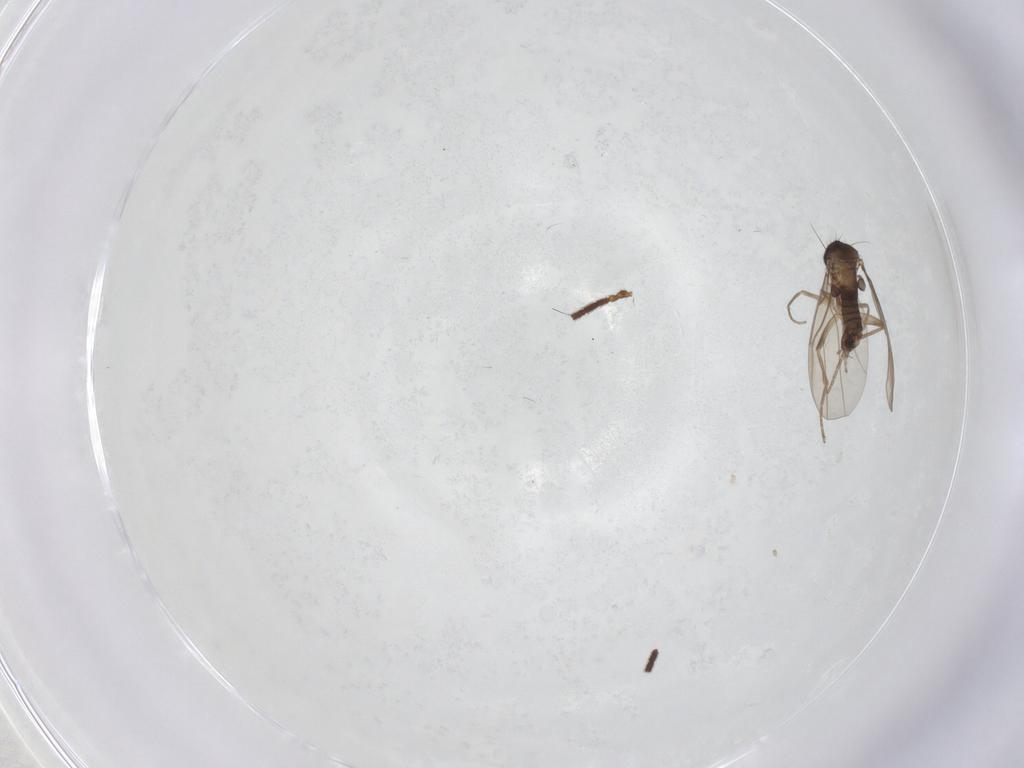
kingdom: Animalia
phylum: Arthropoda
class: Insecta
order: Diptera
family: Phoridae
